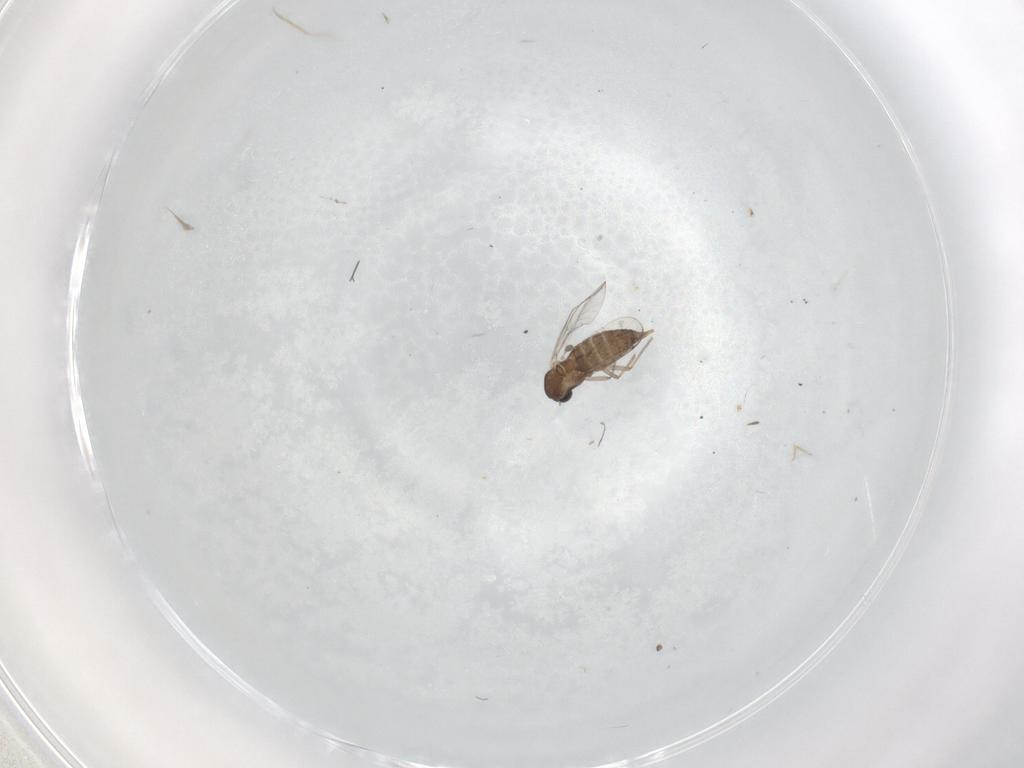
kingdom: Animalia
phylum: Arthropoda
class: Insecta
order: Diptera
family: Chironomidae
